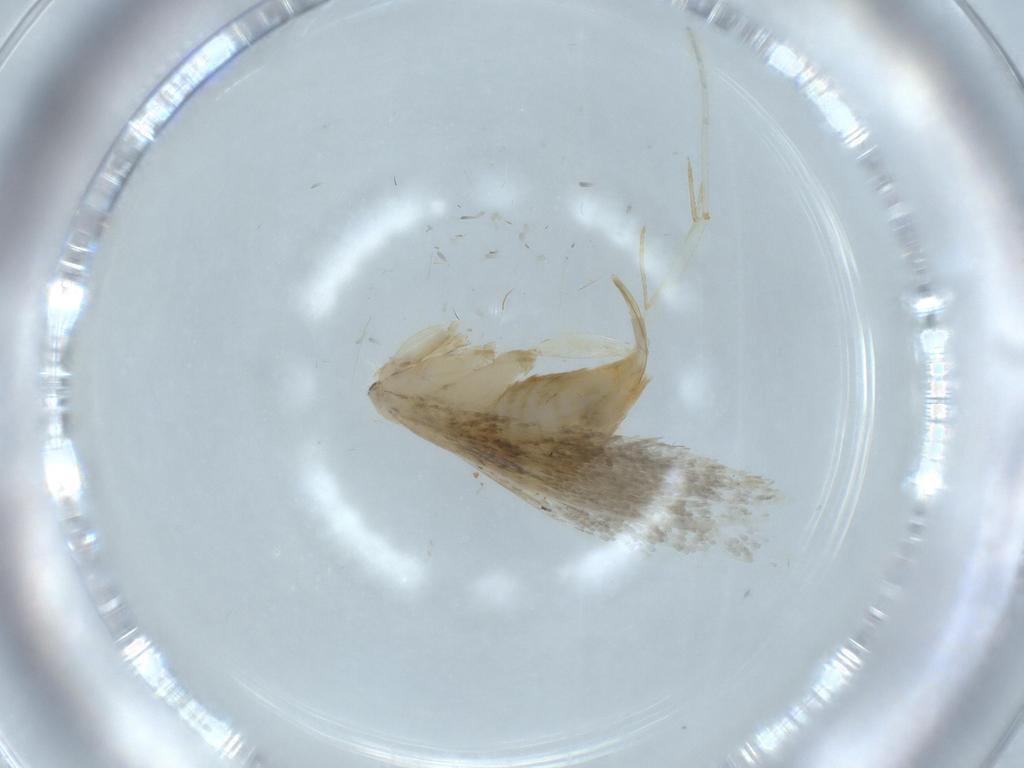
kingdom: Animalia
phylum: Arthropoda
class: Insecta
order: Lepidoptera
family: Tineidae
